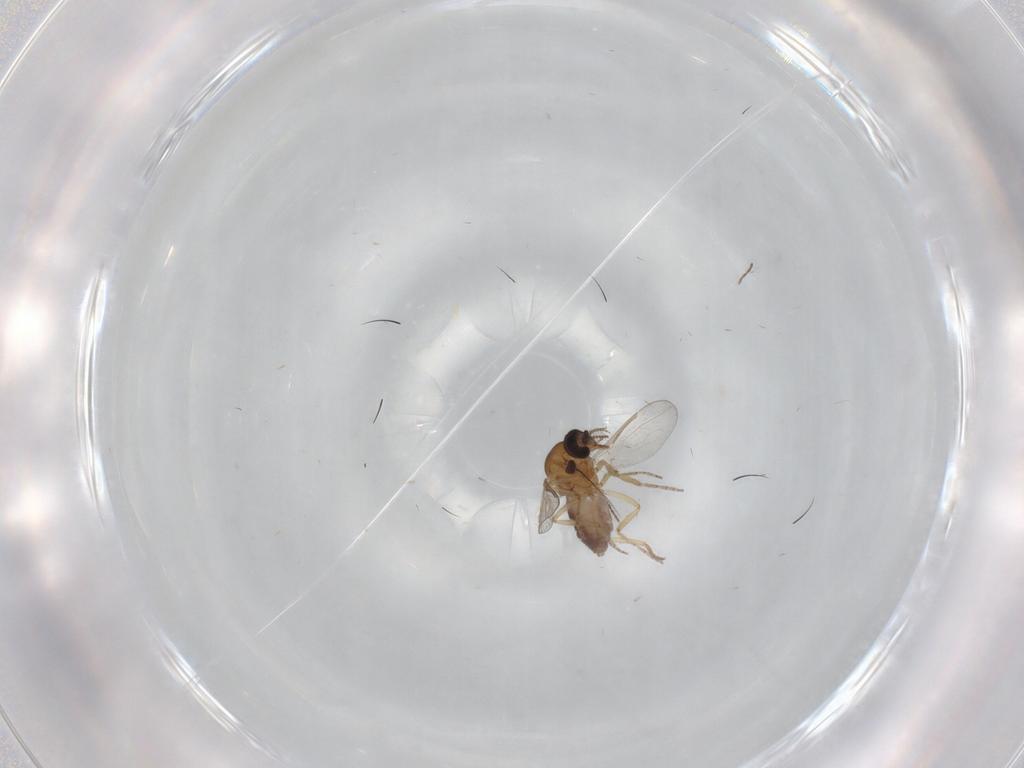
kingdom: Animalia
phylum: Arthropoda
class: Insecta
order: Diptera
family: Dolichopodidae
